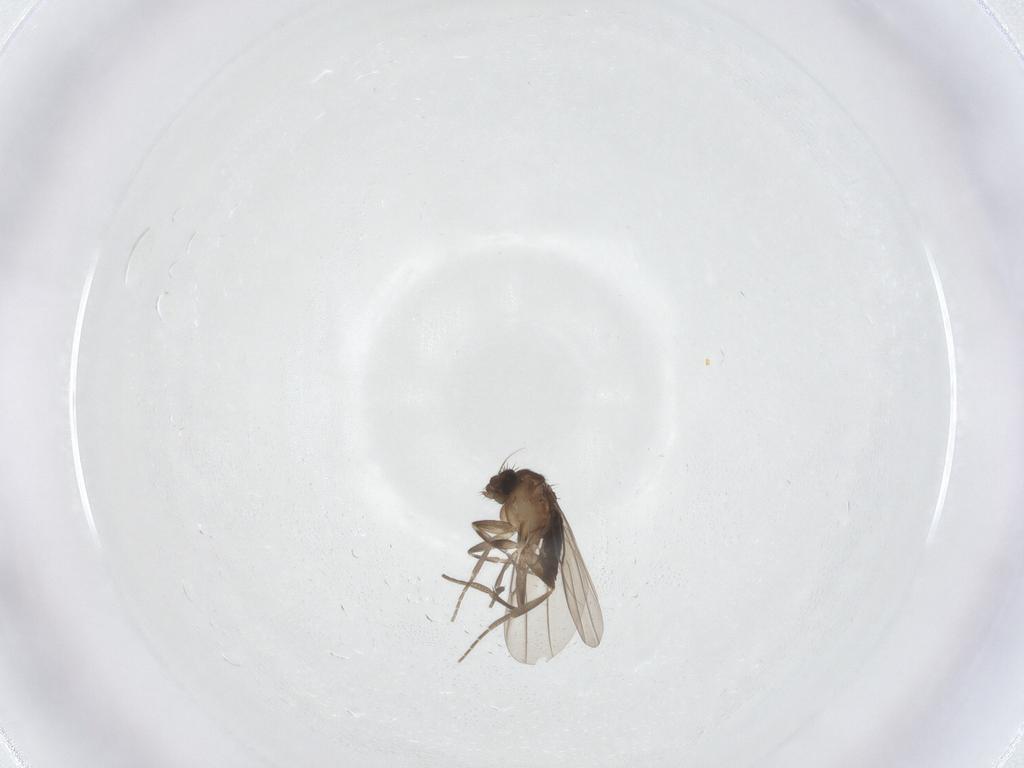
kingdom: Animalia
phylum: Arthropoda
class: Insecta
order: Diptera
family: Phoridae
